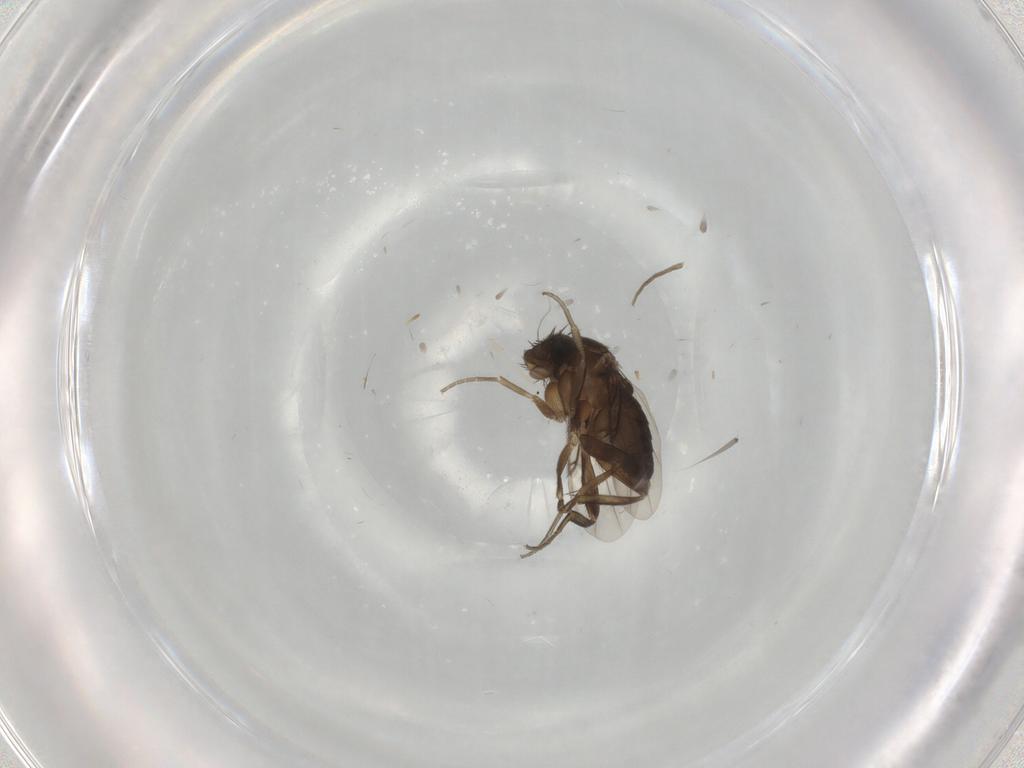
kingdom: Animalia
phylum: Arthropoda
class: Insecta
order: Diptera
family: Phoridae
